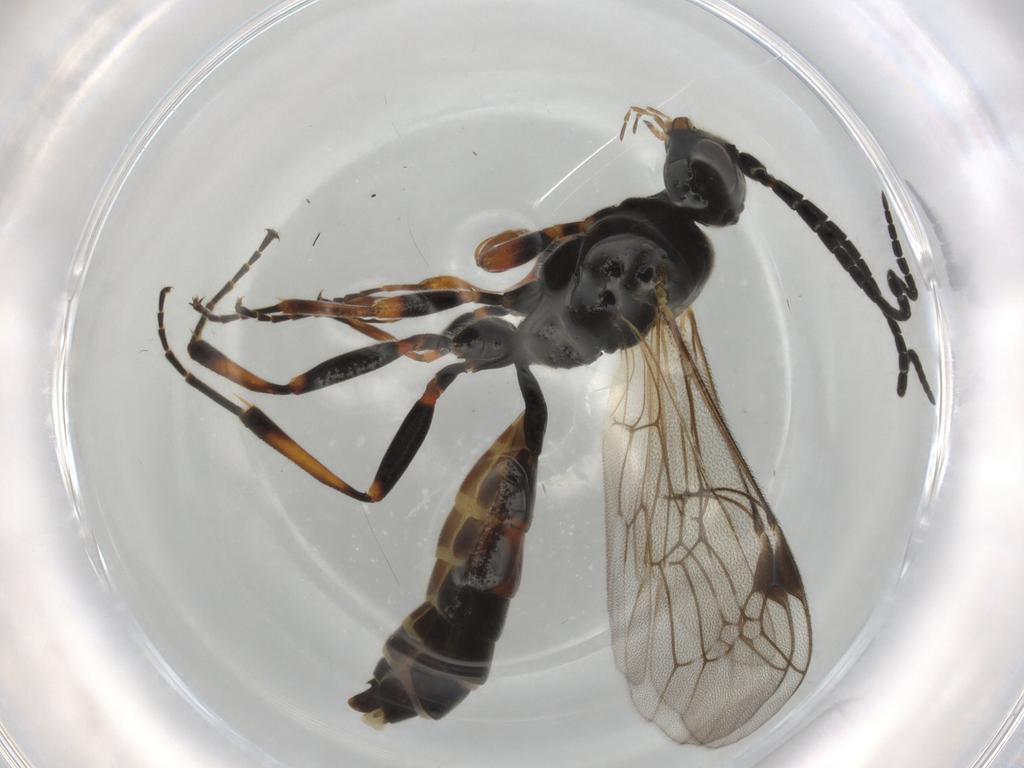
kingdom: Animalia
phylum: Arthropoda
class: Insecta
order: Hymenoptera
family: Ichneumonidae
